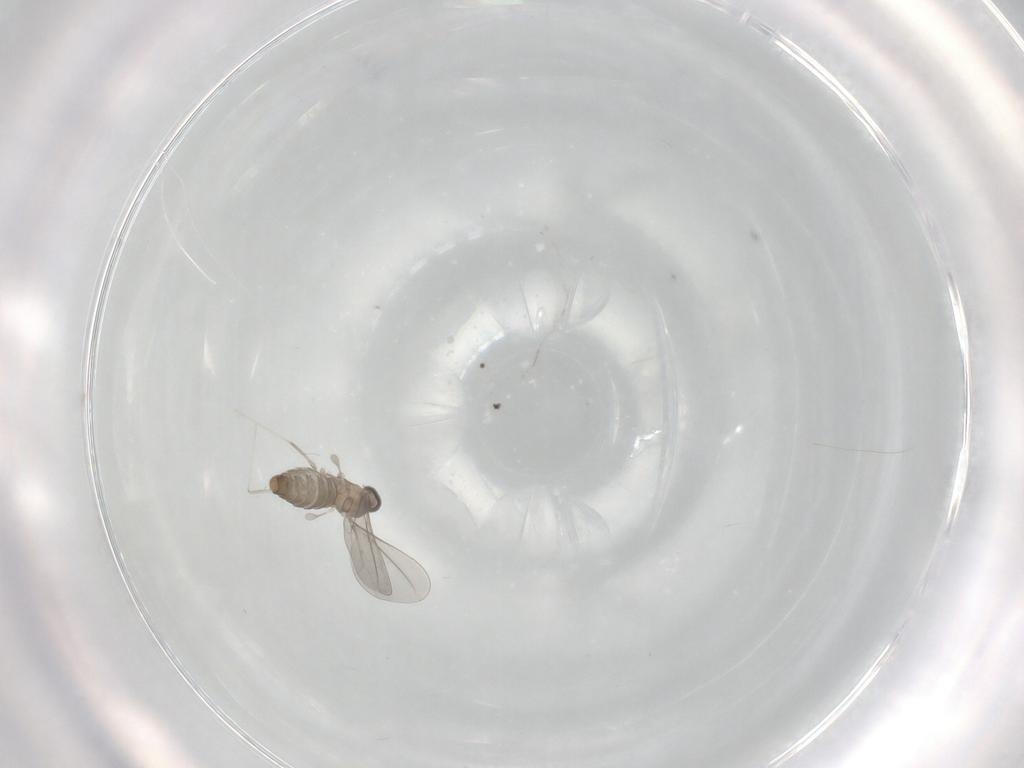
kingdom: Animalia
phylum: Arthropoda
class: Insecta
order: Diptera
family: Cecidomyiidae
